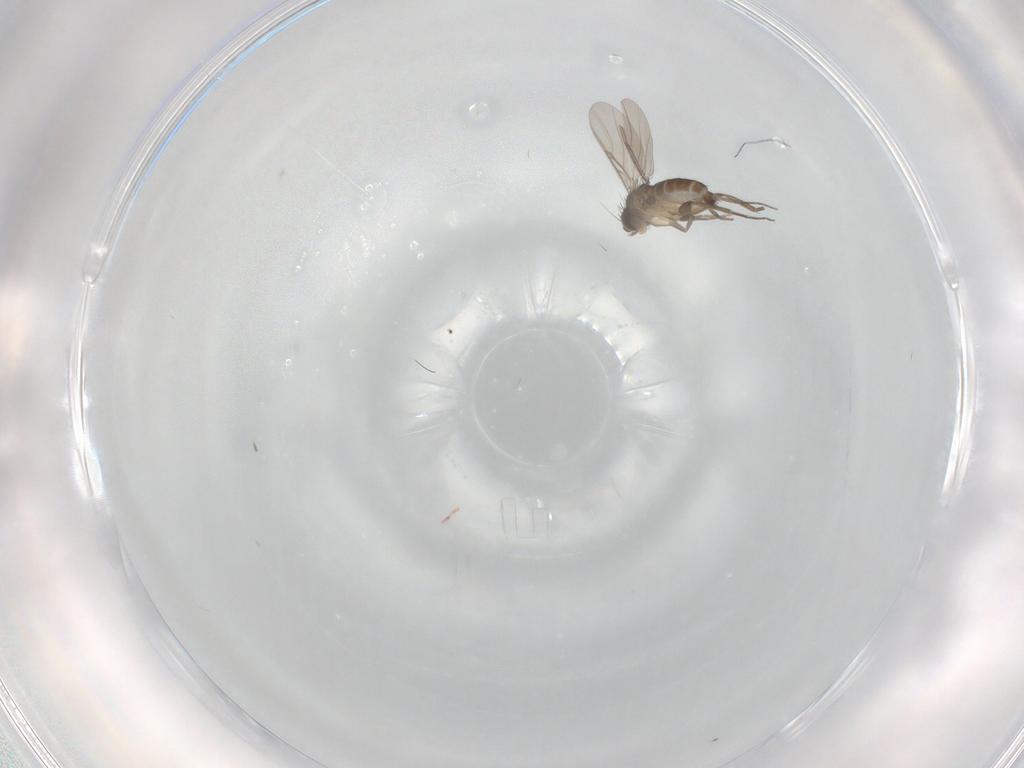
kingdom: Animalia
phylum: Arthropoda
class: Insecta
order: Diptera
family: Phoridae
